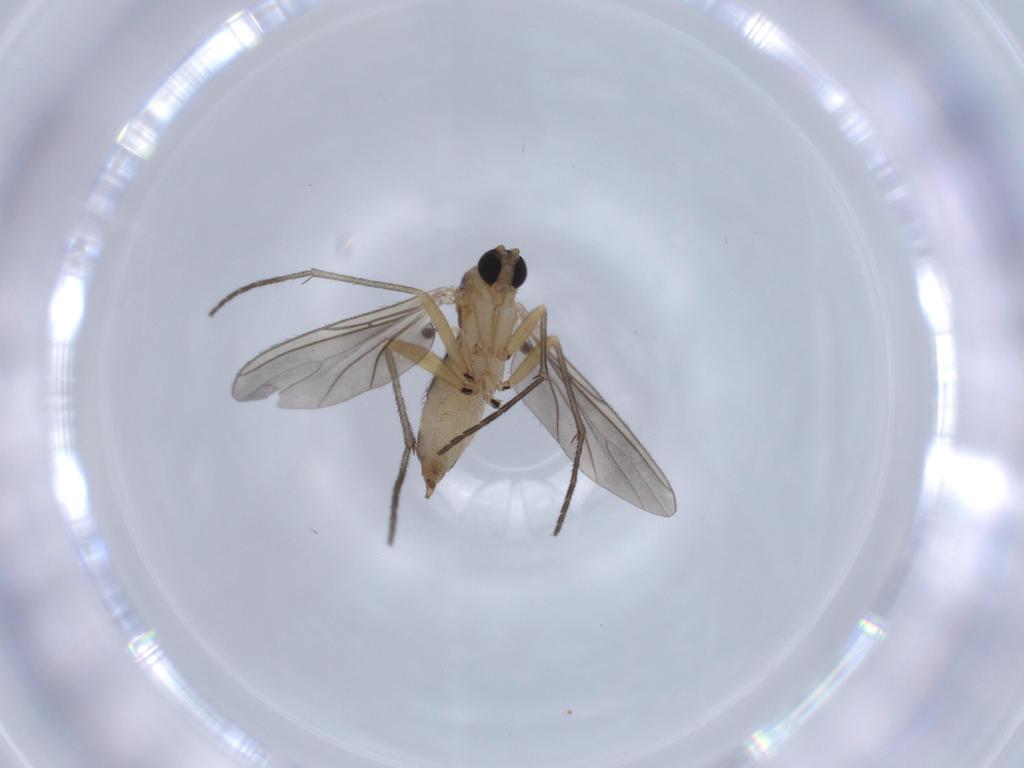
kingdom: Animalia
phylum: Arthropoda
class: Insecta
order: Diptera
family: Sciaridae
